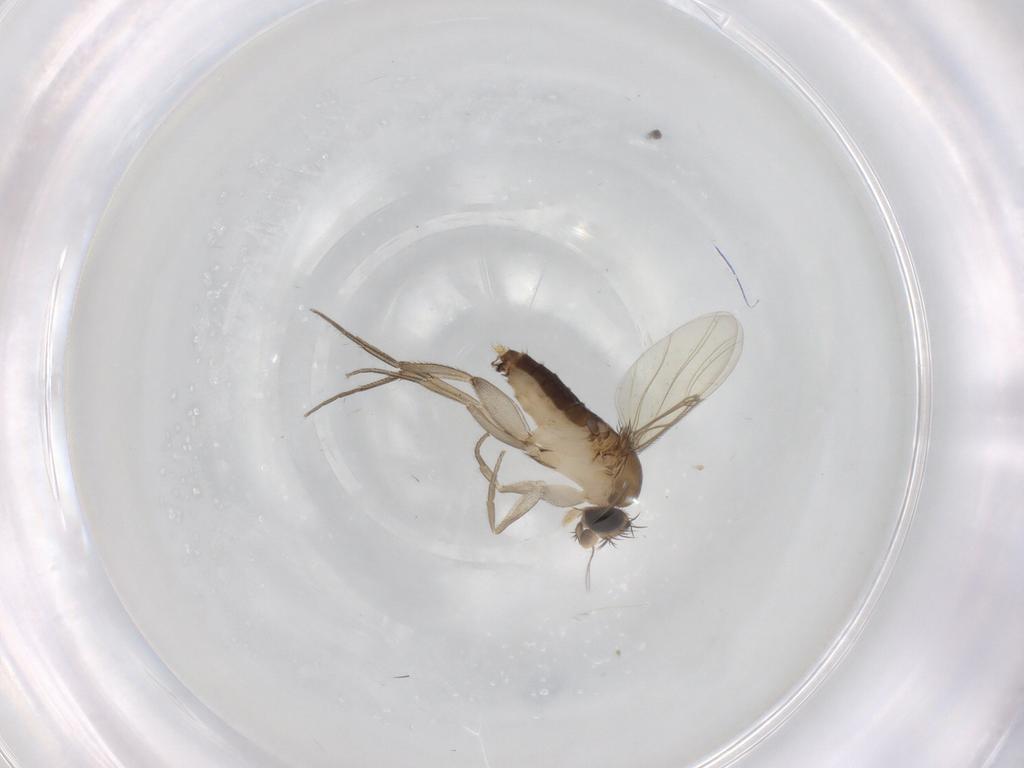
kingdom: Animalia
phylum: Arthropoda
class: Insecta
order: Diptera
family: Phoridae
